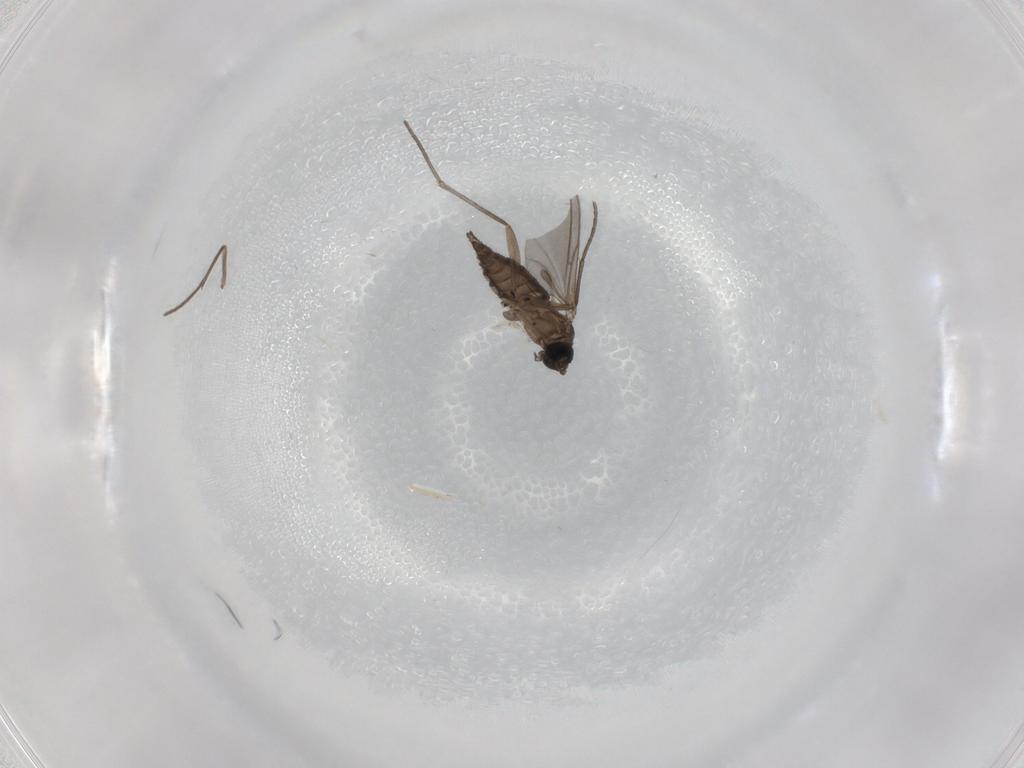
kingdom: Animalia
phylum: Arthropoda
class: Insecta
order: Diptera
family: Sciaridae
